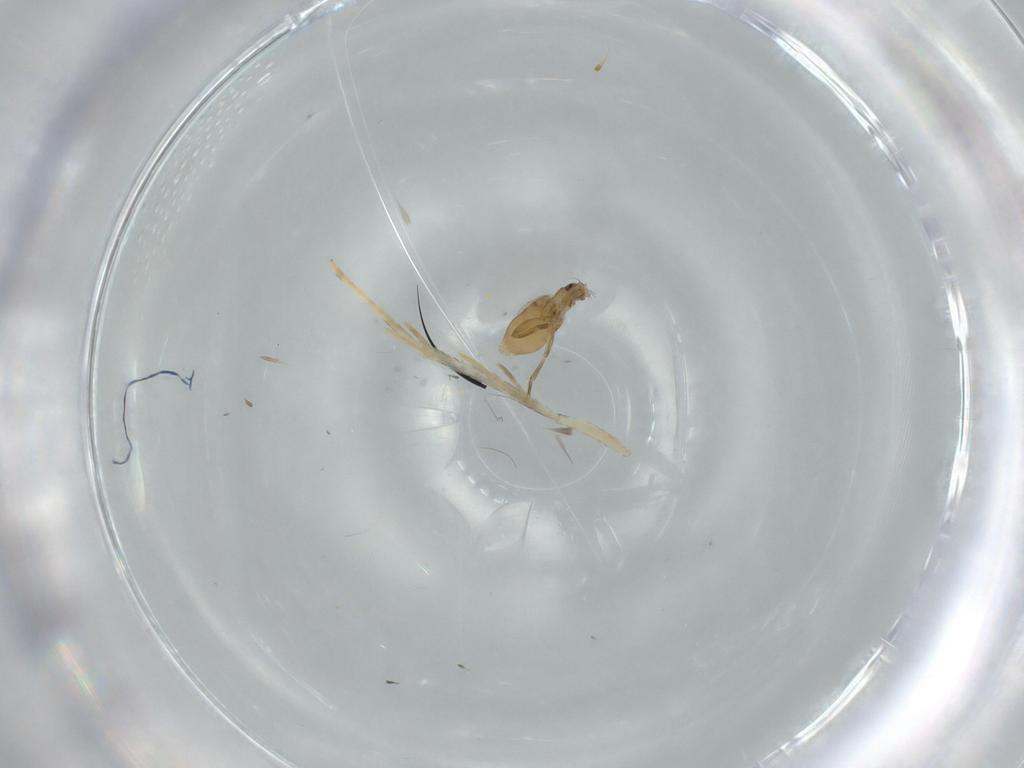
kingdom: Animalia
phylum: Arthropoda
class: Insecta
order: Diptera
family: Phoridae
